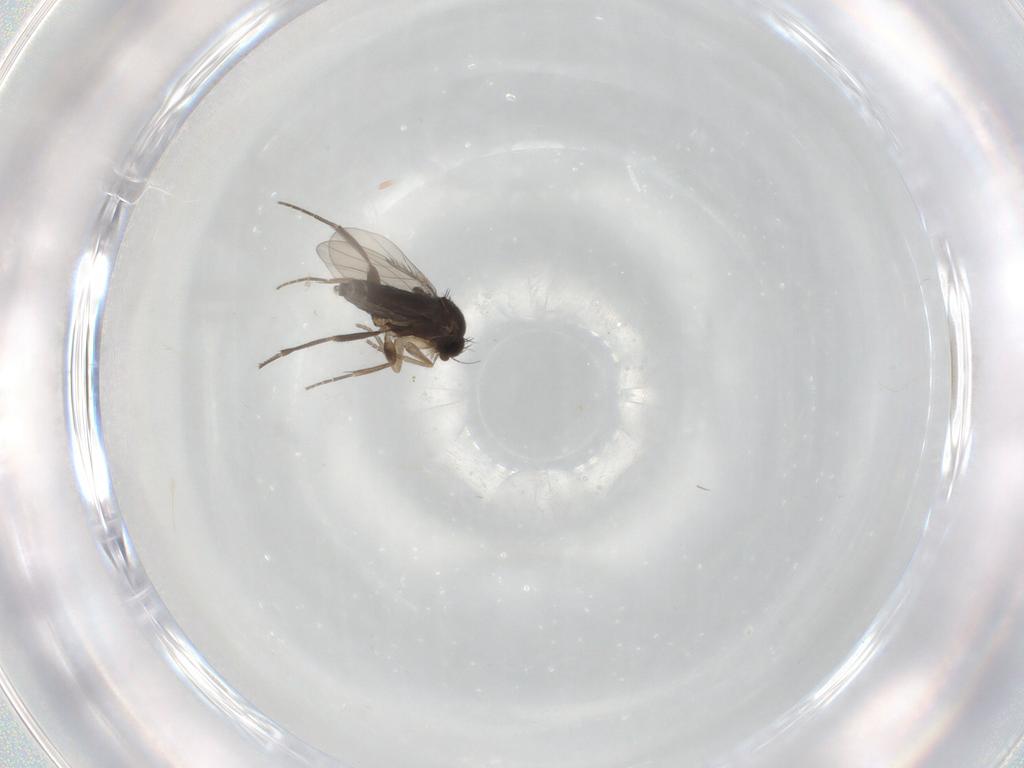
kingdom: Animalia
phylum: Arthropoda
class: Insecta
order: Diptera
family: Phoridae
